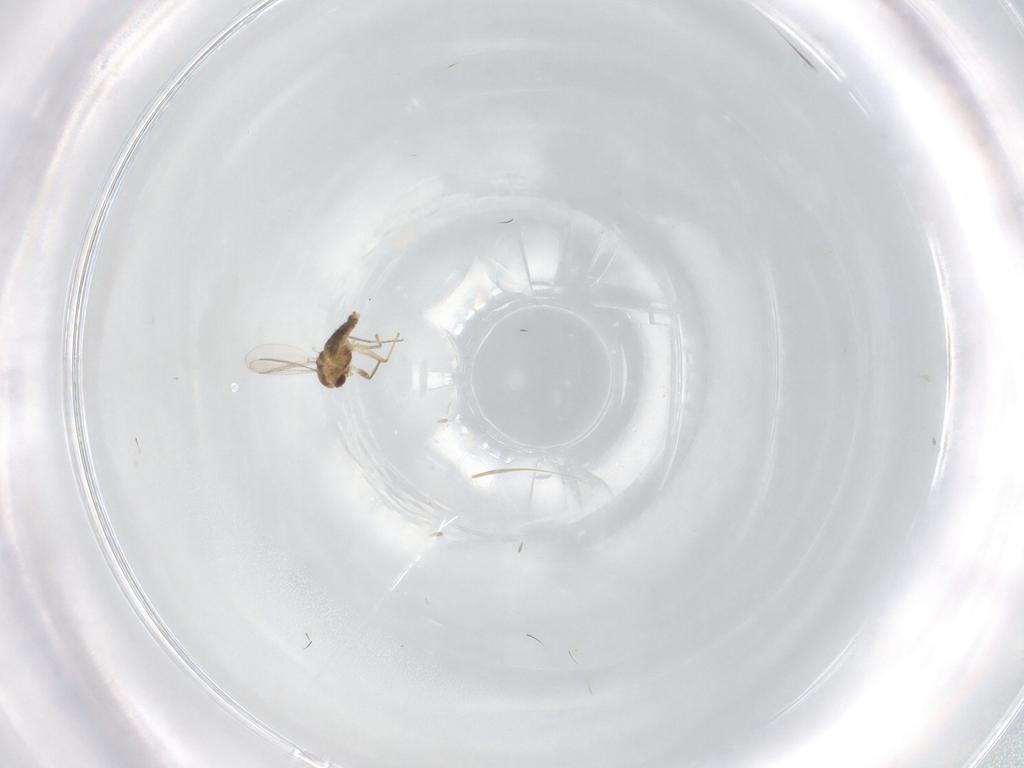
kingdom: Animalia
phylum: Arthropoda
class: Insecta
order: Diptera
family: Chironomidae
